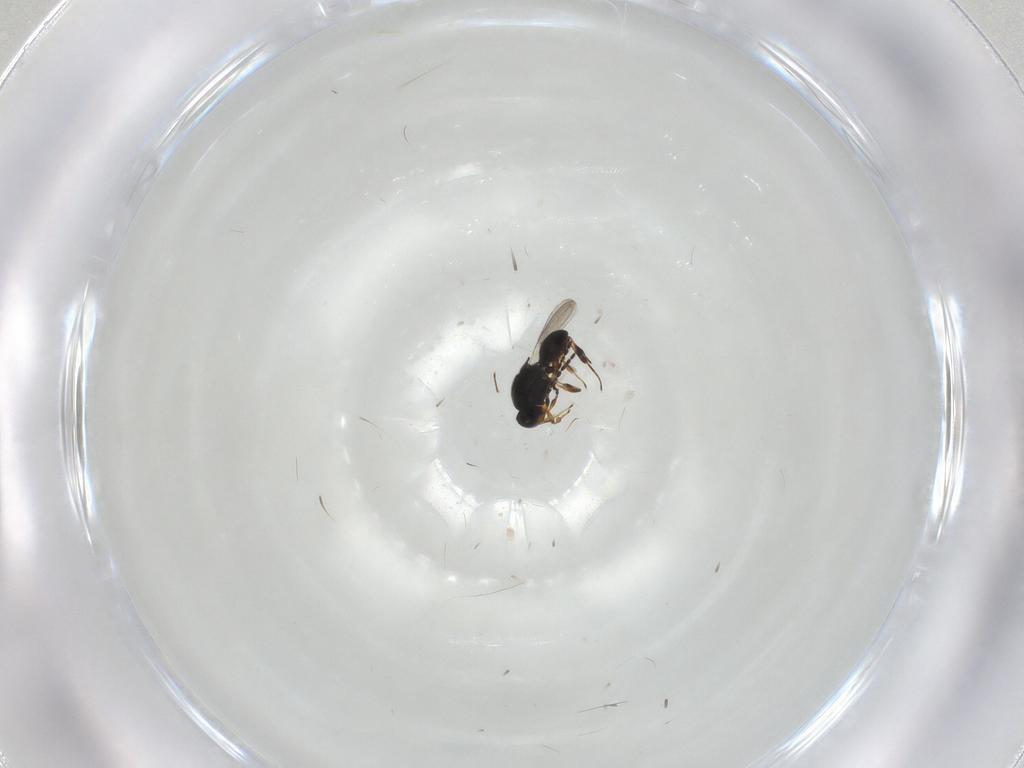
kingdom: Animalia
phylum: Arthropoda
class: Insecta
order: Hymenoptera
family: Scelionidae
